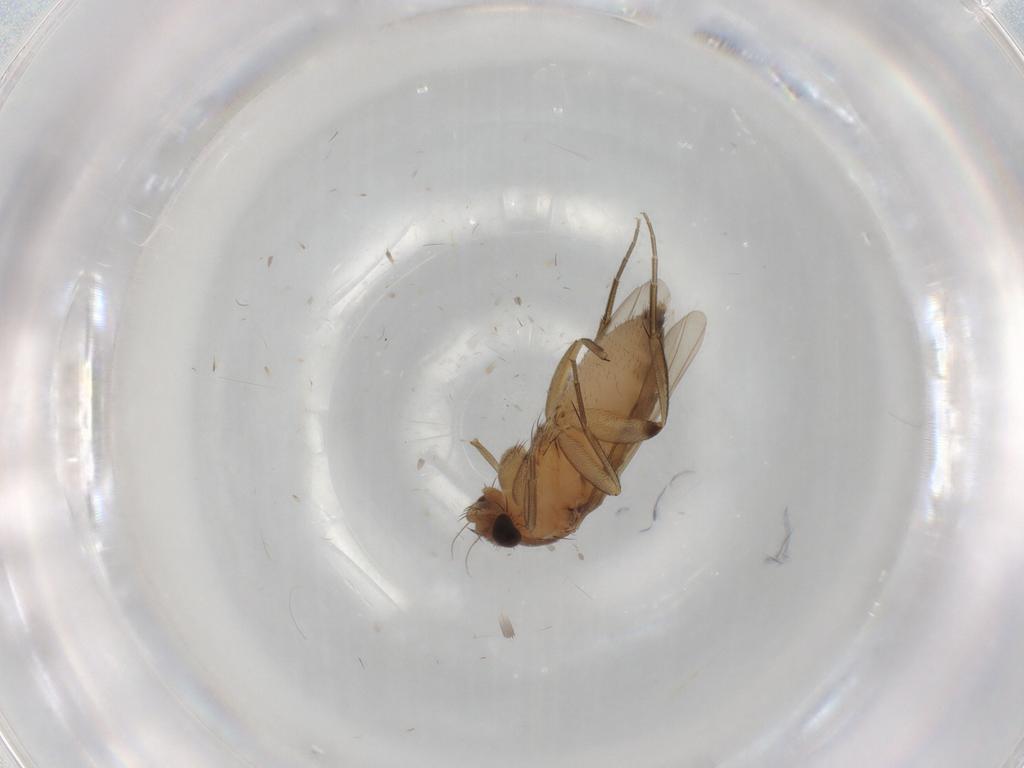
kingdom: Animalia
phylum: Arthropoda
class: Insecta
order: Diptera
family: Phoridae
